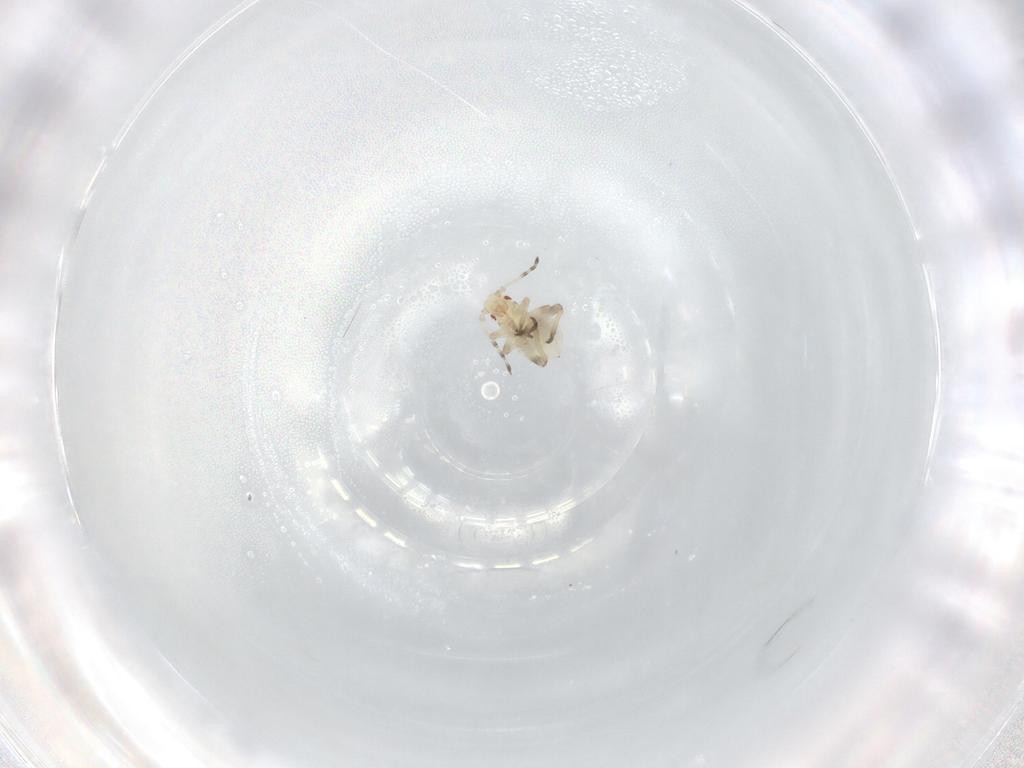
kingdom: Animalia
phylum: Arthropoda
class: Insecta
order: Hemiptera
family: Aphididae
